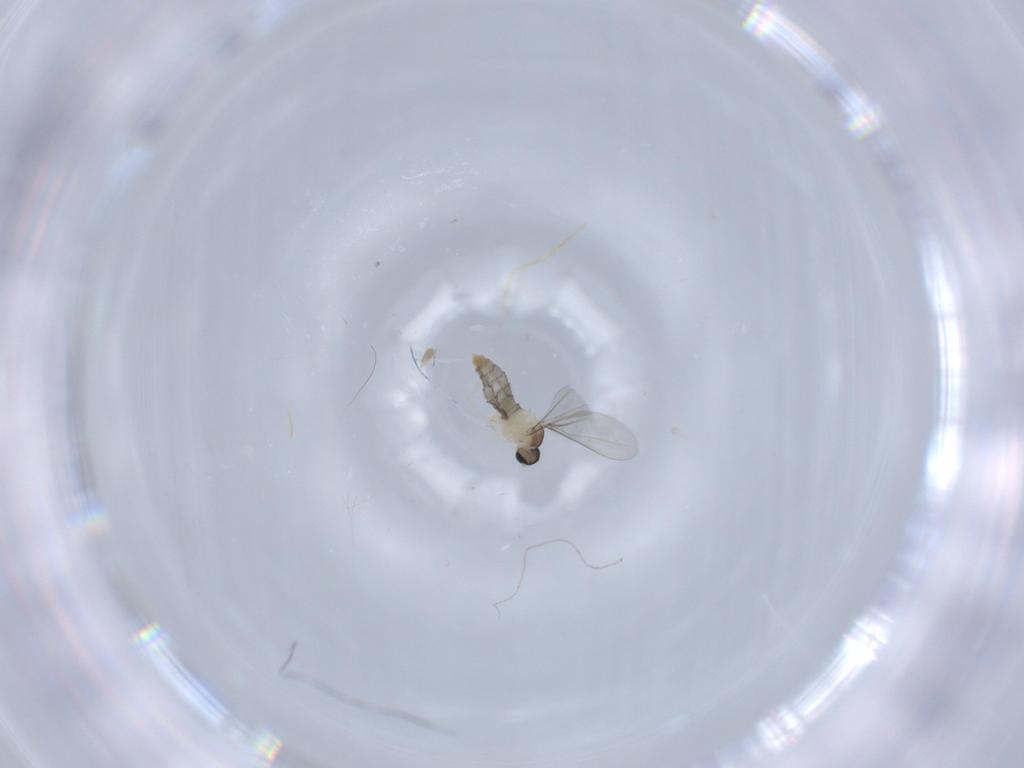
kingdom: Animalia
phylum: Arthropoda
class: Insecta
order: Diptera
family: Cecidomyiidae
